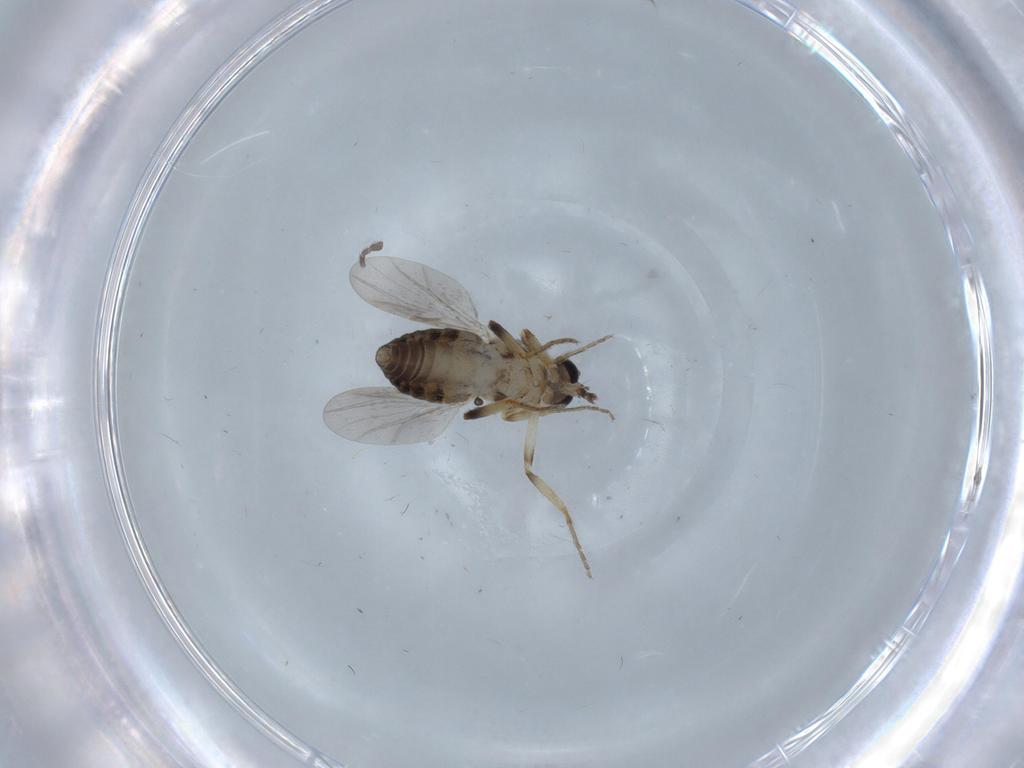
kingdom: Animalia
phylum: Arthropoda
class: Insecta
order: Diptera
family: Ceratopogonidae
